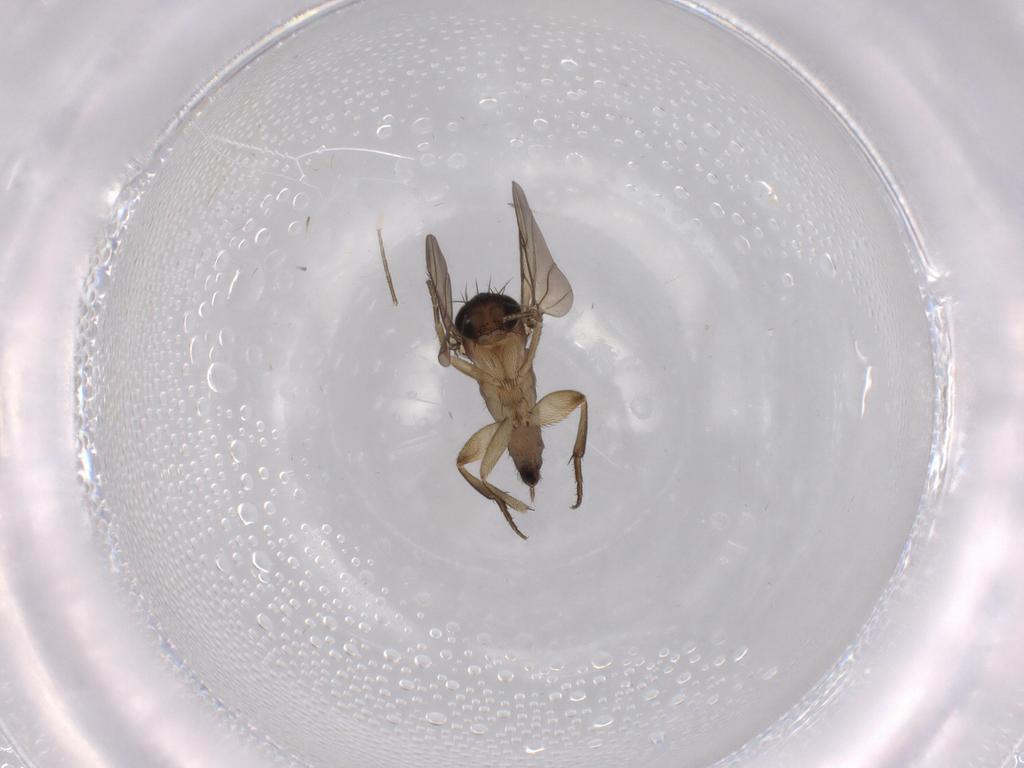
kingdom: Animalia
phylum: Arthropoda
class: Insecta
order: Diptera
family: Phoridae
